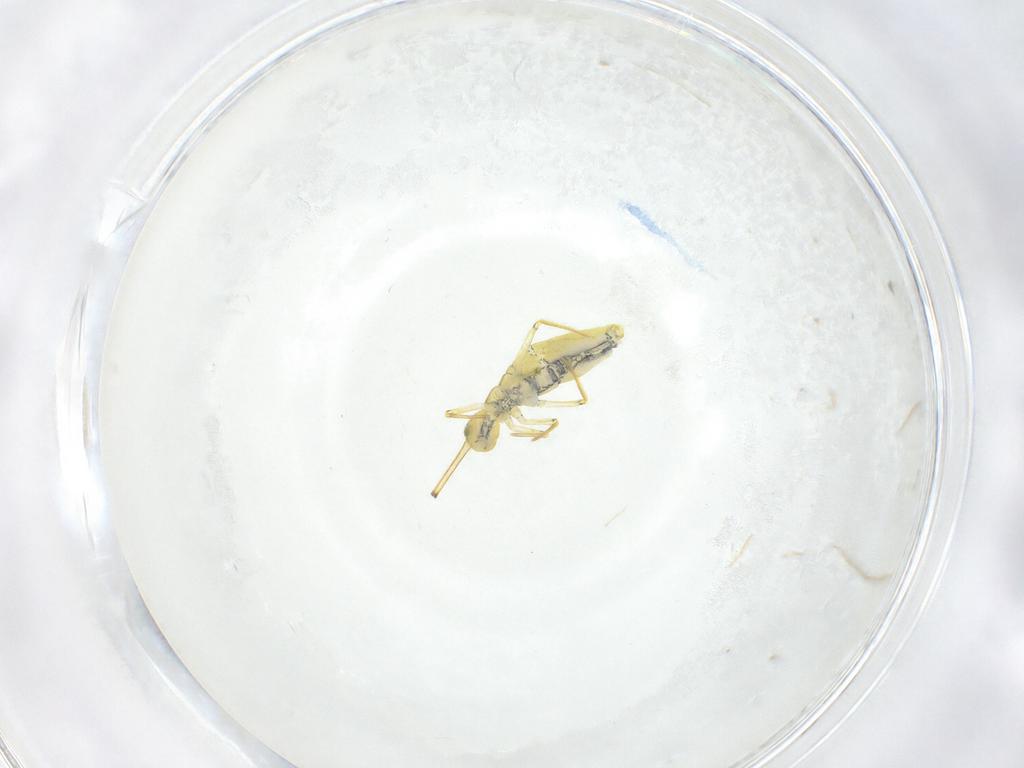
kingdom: Animalia
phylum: Arthropoda
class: Collembola
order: Entomobryomorpha
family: Paronellidae
